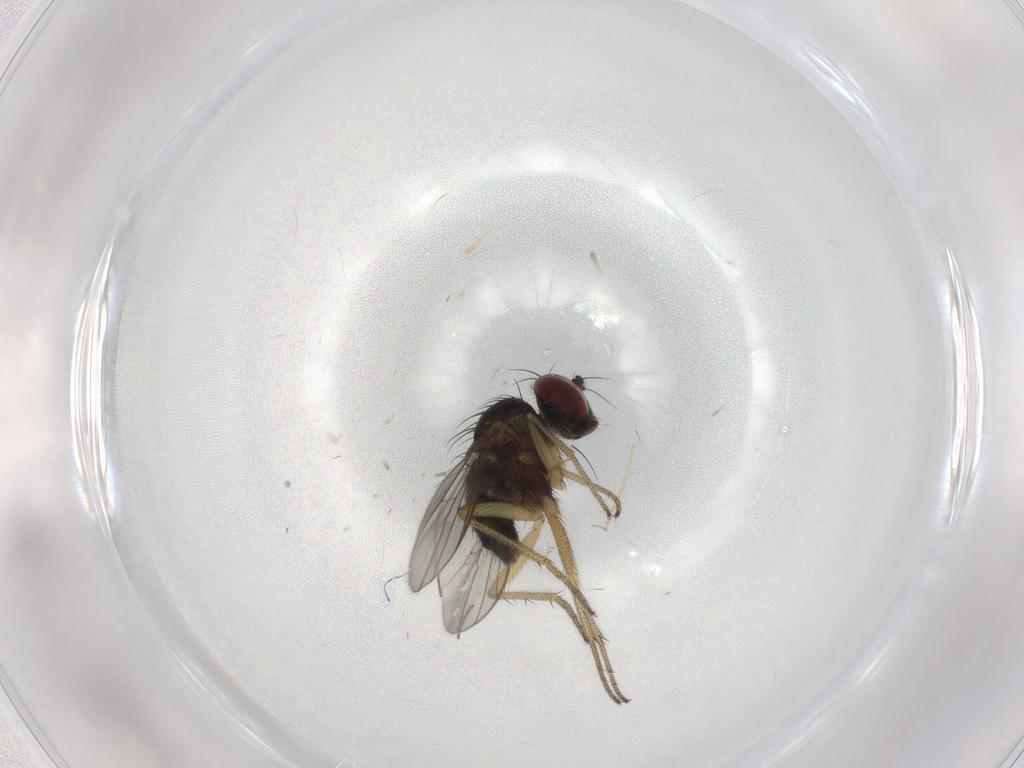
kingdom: Animalia
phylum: Arthropoda
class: Insecta
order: Diptera
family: Dolichopodidae
